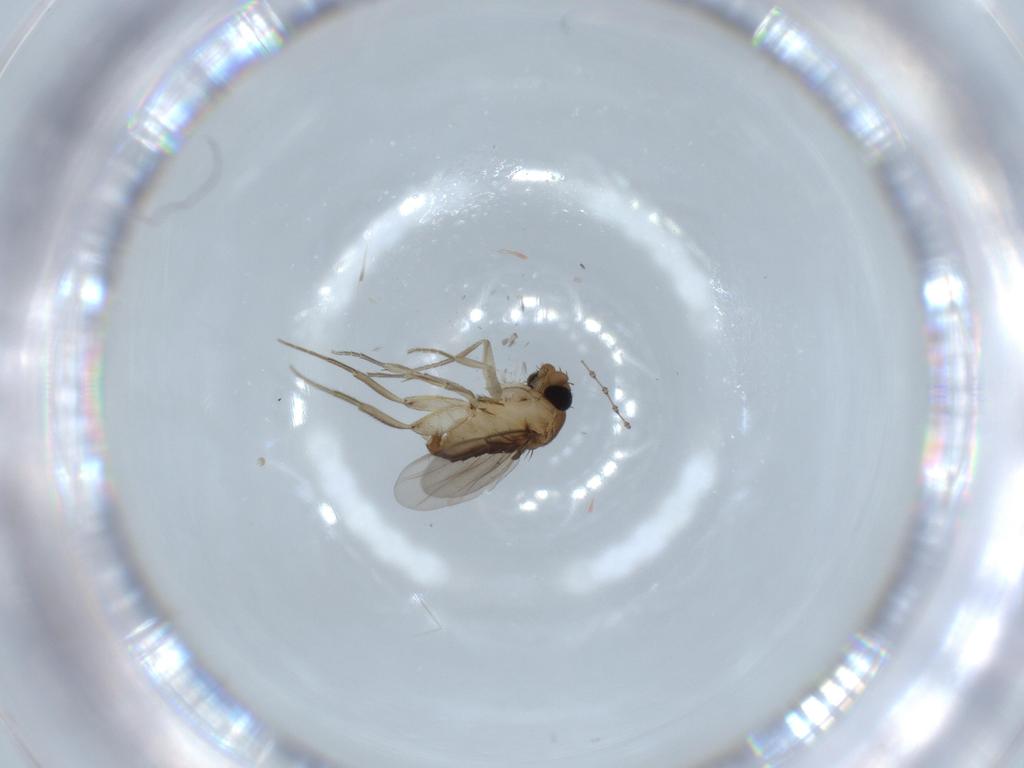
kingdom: Animalia
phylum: Arthropoda
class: Insecta
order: Diptera
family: Phoridae
